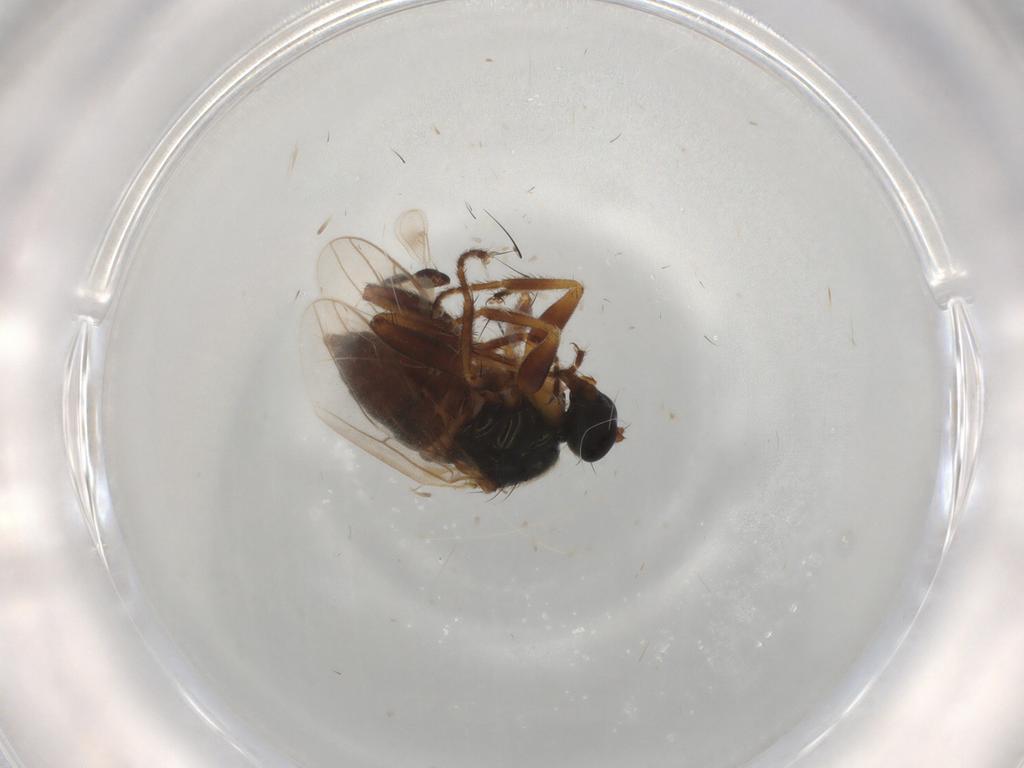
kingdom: Animalia
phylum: Arthropoda
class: Insecta
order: Diptera
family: Hybotidae
